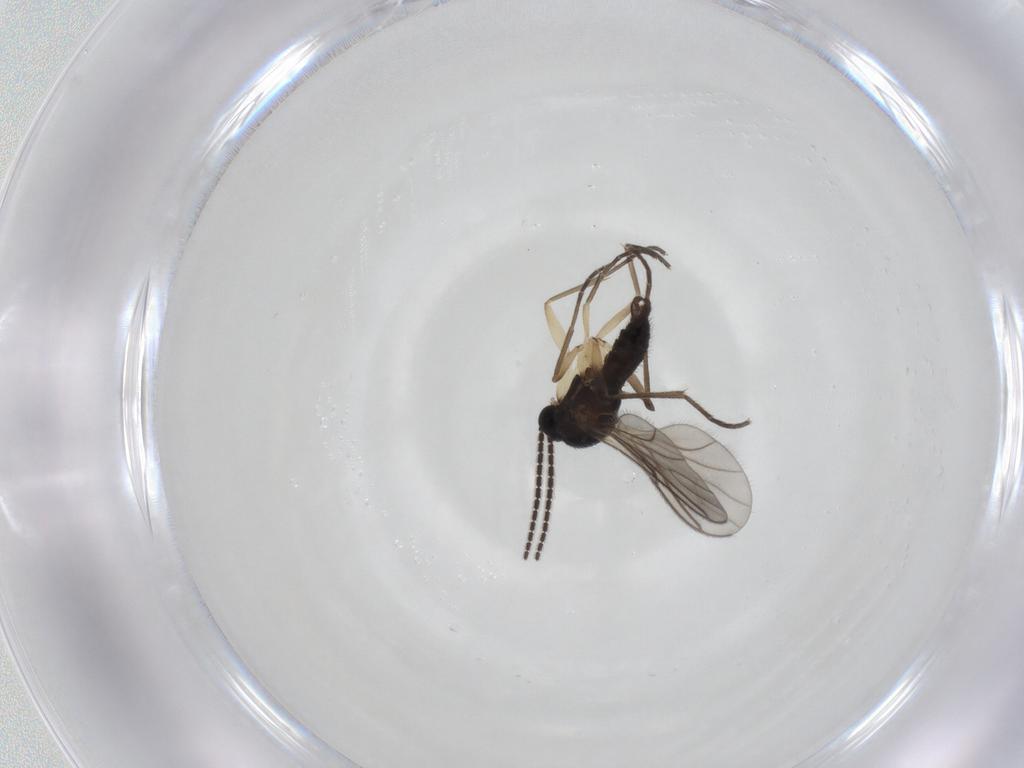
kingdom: Animalia
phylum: Arthropoda
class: Insecta
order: Diptera
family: Sciaridae
